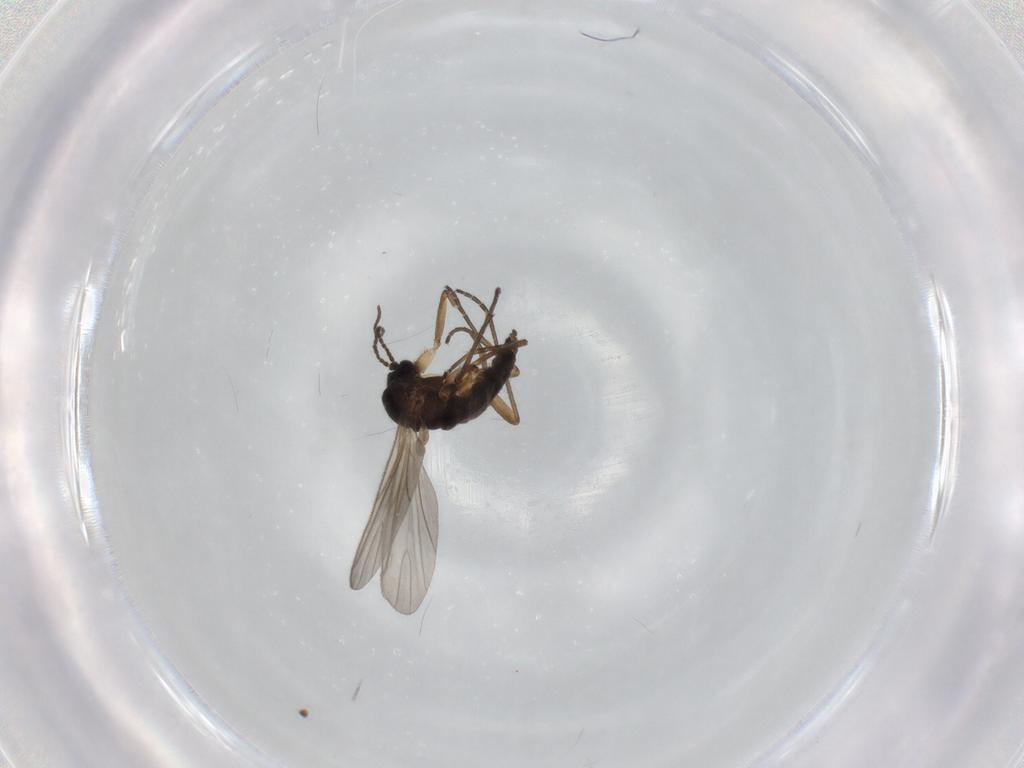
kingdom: Animalia
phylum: Arthropoda
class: Insecta
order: Diptera
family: Sciaridae
